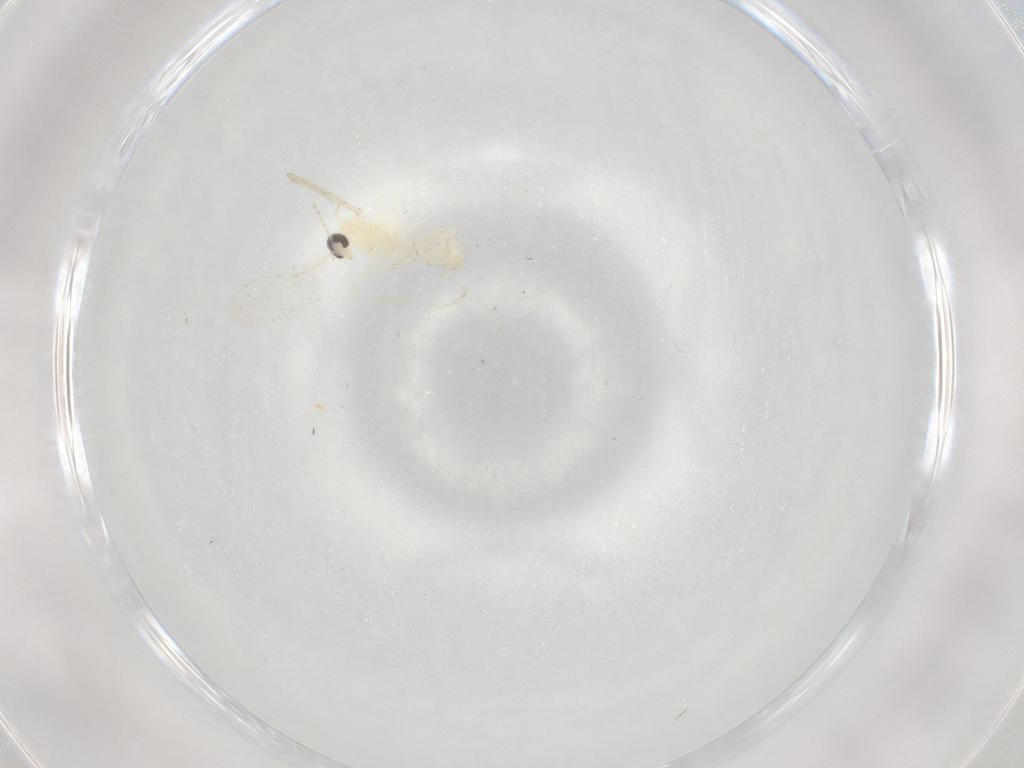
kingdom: Animalia
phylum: Arthropoda
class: Insecta
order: Diptera
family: Cecidomyiidae
